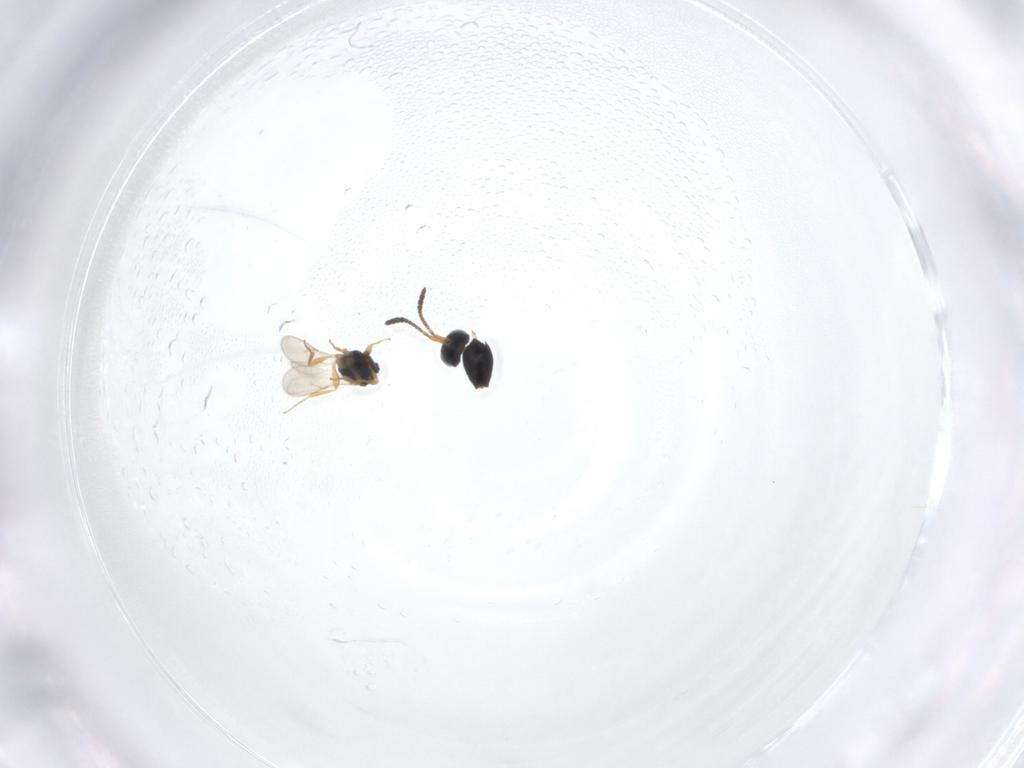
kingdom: Animalia
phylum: Arthropoda
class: Insecta
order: Hymenoptera
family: Scelionidae
